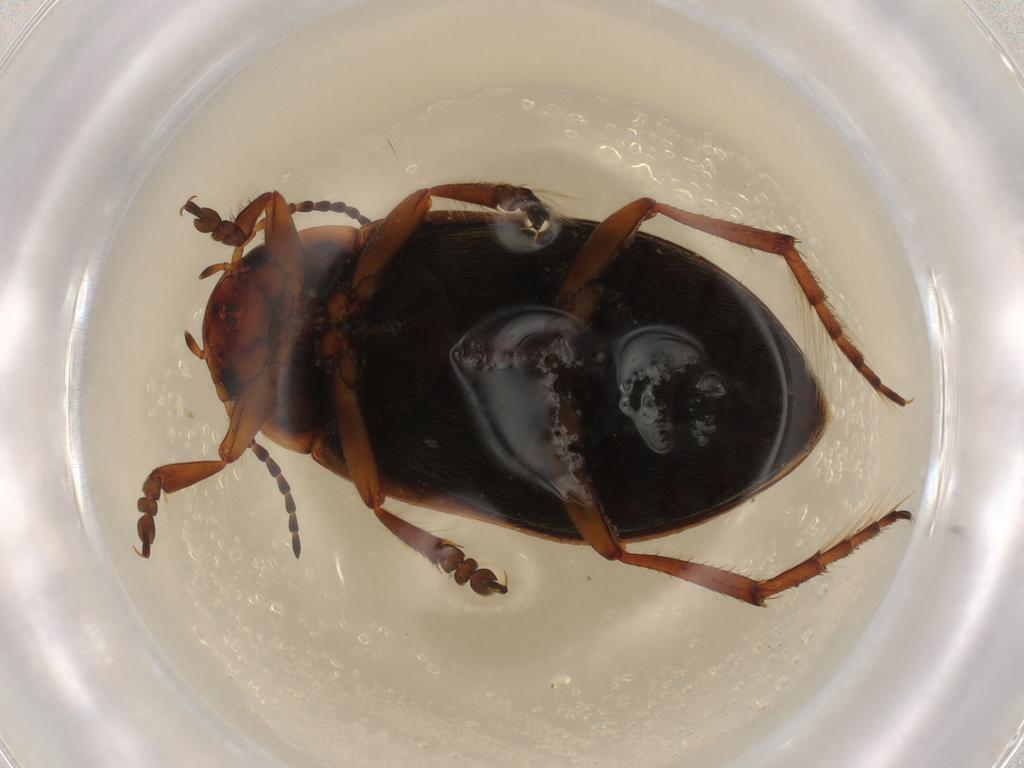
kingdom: Animalia
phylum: Arthropoda
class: Insecta
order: Coleoptera
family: Dytiscidae
